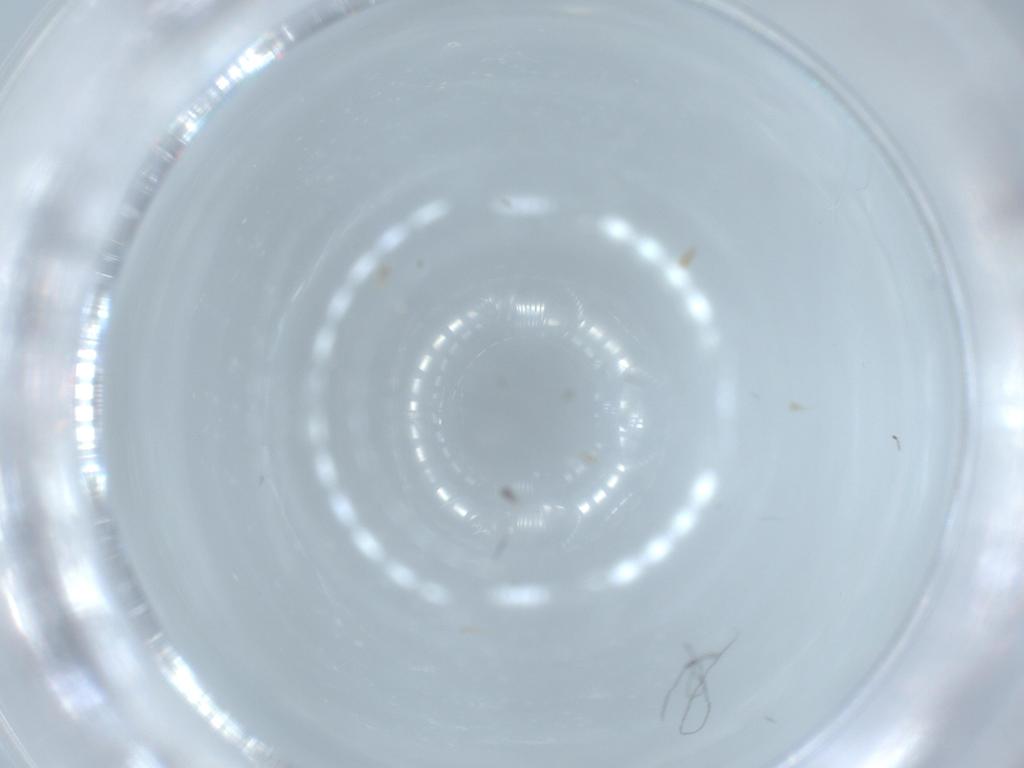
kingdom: Animalia
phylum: Arthropoda
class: Insecta
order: Diptera
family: Chironomidae
